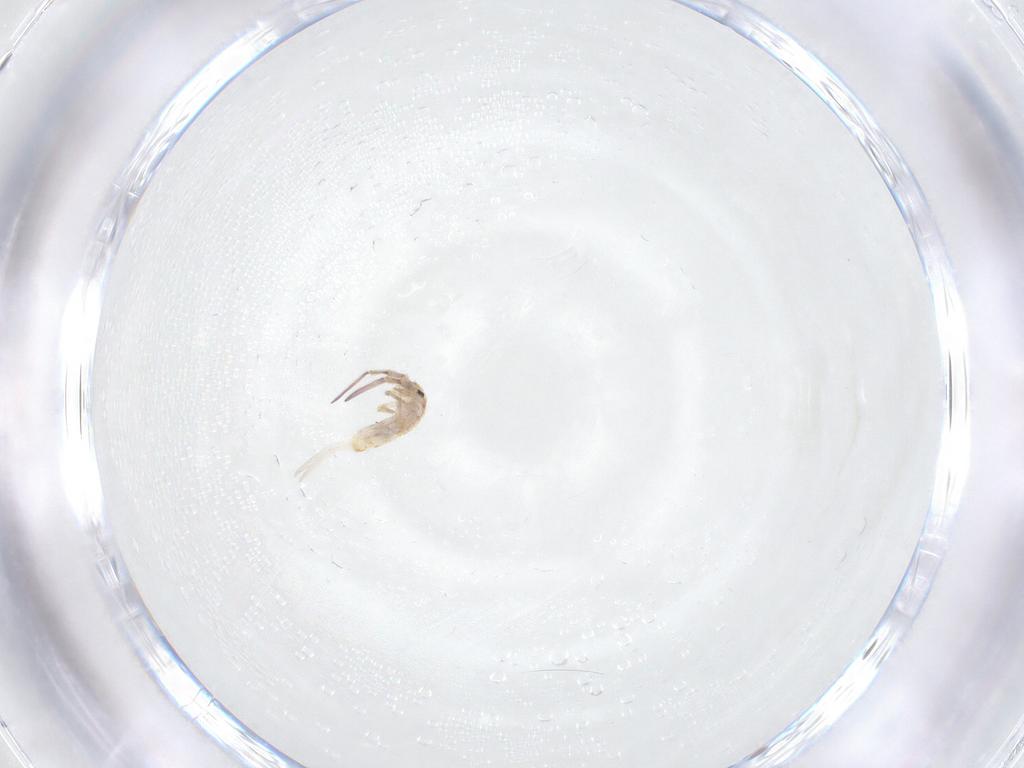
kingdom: Animalia
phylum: Arthropoda
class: Collembola
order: Entomobryomorpha
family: Entomobryidae
